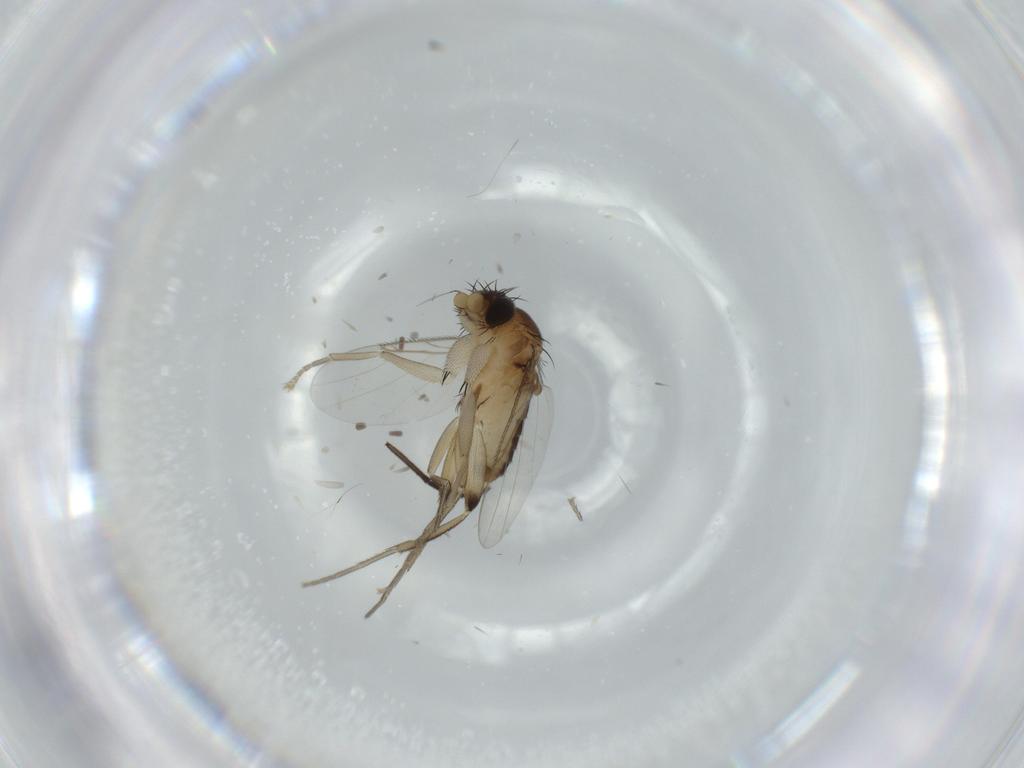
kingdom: Animalia
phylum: Arthropoda
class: Insecta
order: Diptera
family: Phoridae
